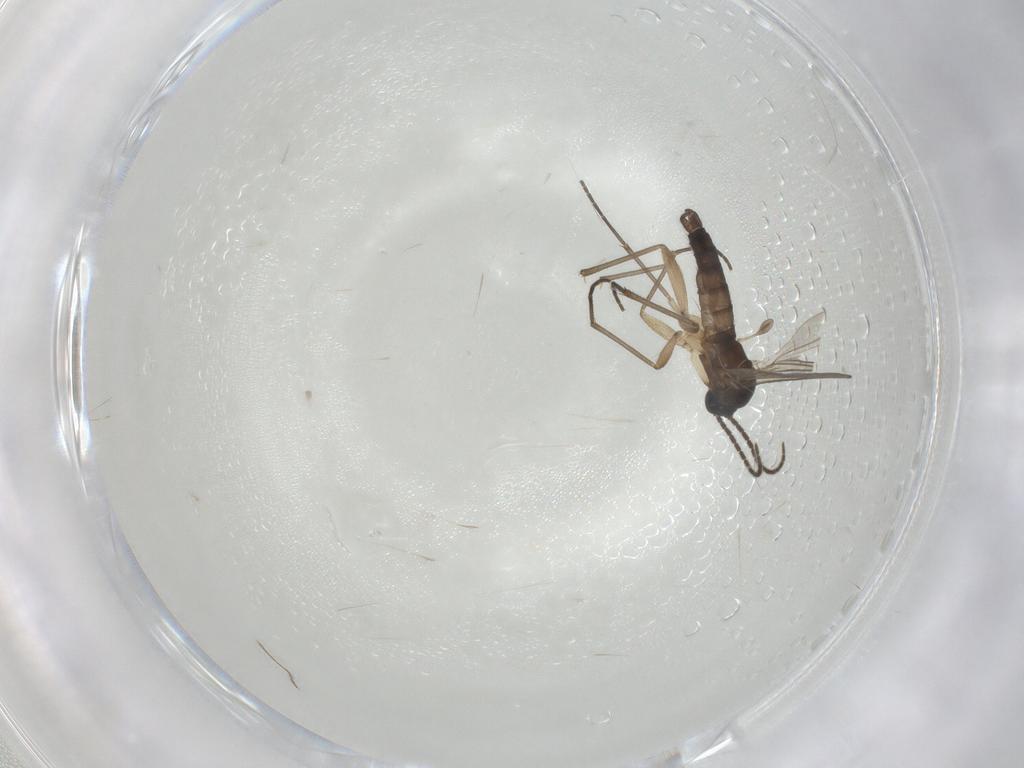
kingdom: Animalia
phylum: Arthropoda
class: Insecta
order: Diptera
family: Sciaridae
